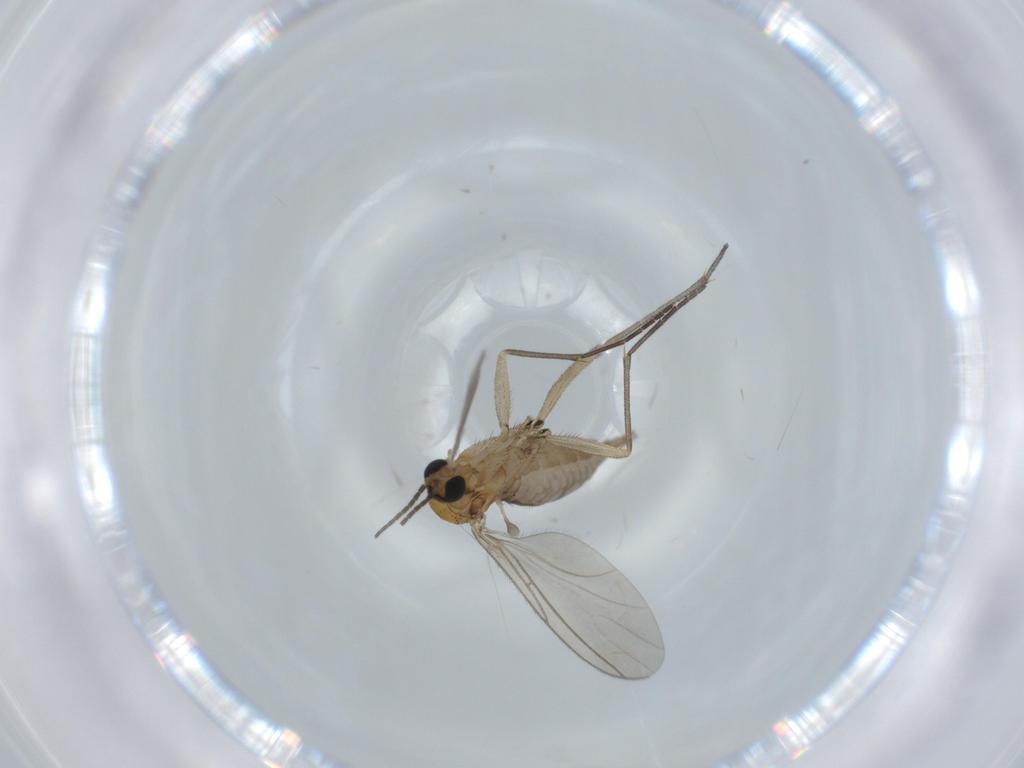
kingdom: Animalia
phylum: Arthropoda
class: Insecta
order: Diptera
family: Sciaridae
